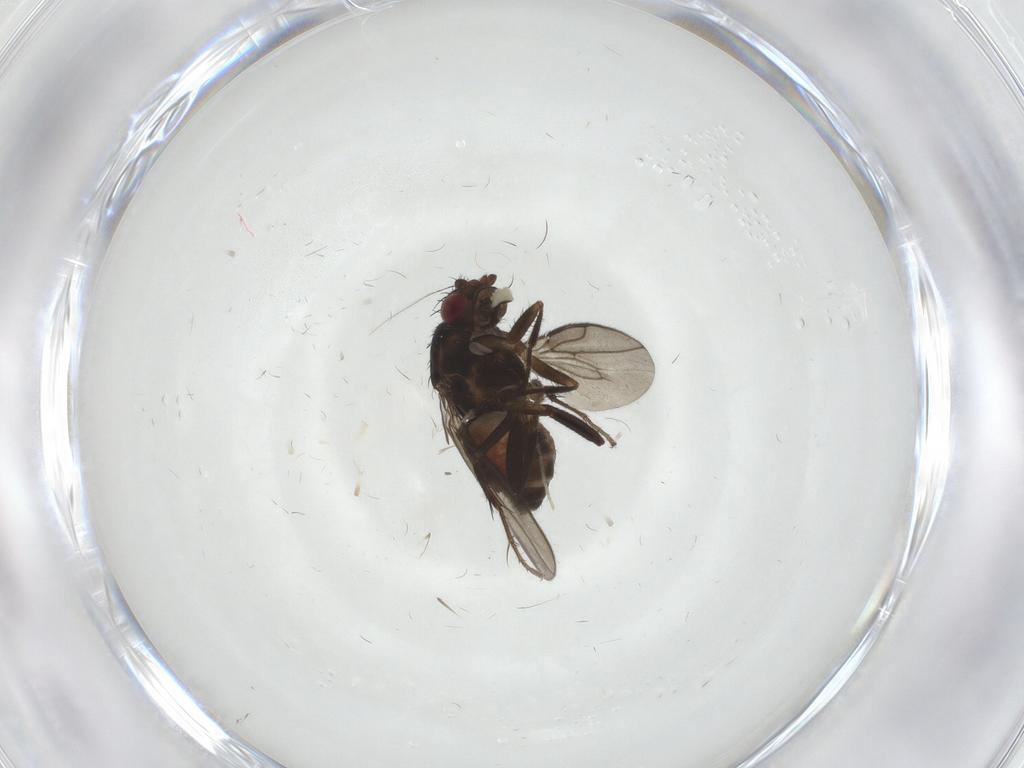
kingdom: Animalia
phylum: Arthropoda
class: Insecta
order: Diptera
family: Sphaeroceridae
